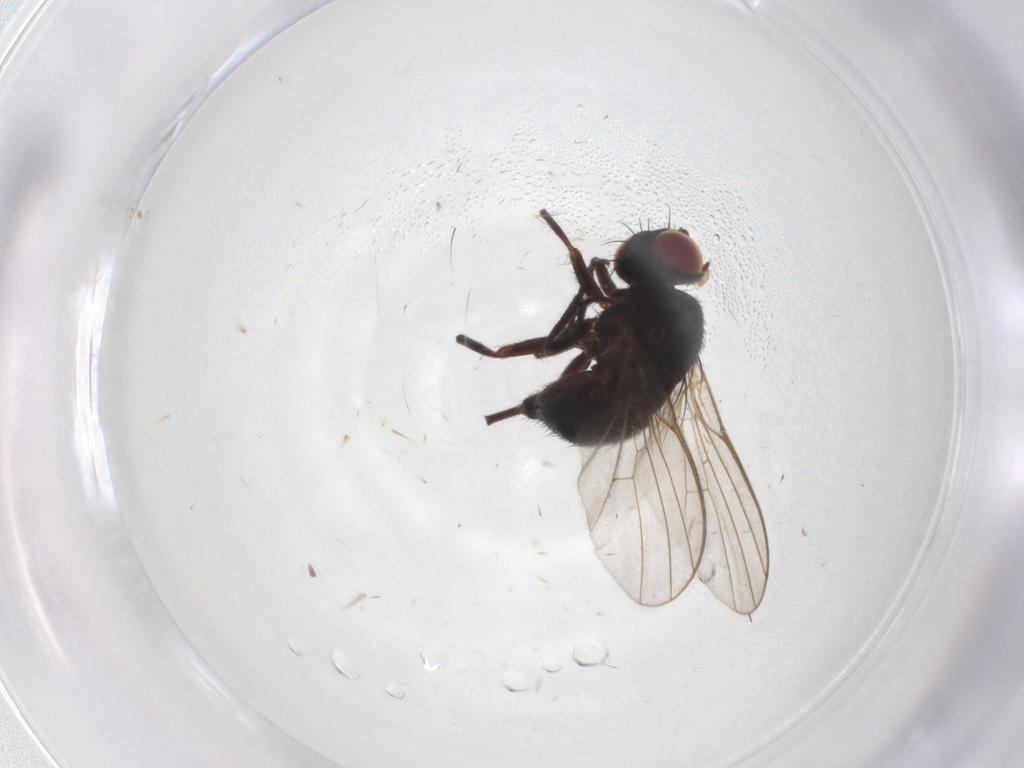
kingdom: Animalia
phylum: Arthropoda
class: Insecta
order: Diptera
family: Agromyzidae
